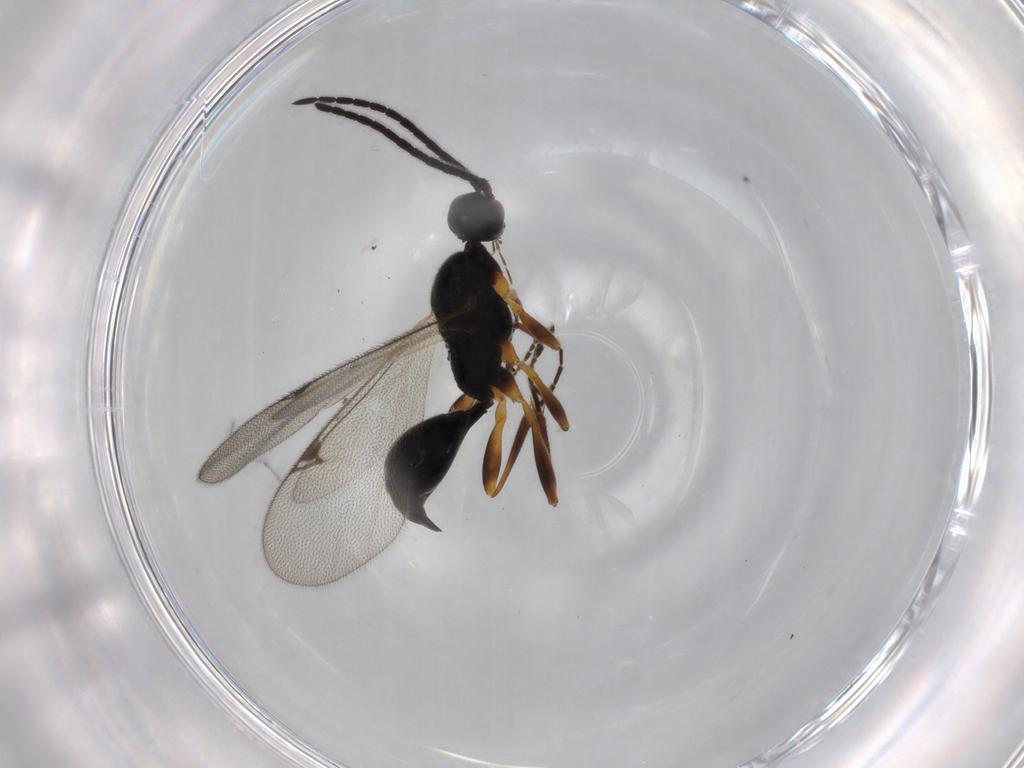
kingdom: Animalia
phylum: Arthropoda
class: Insecta
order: Hymenoptera
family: Proctotrupidae
